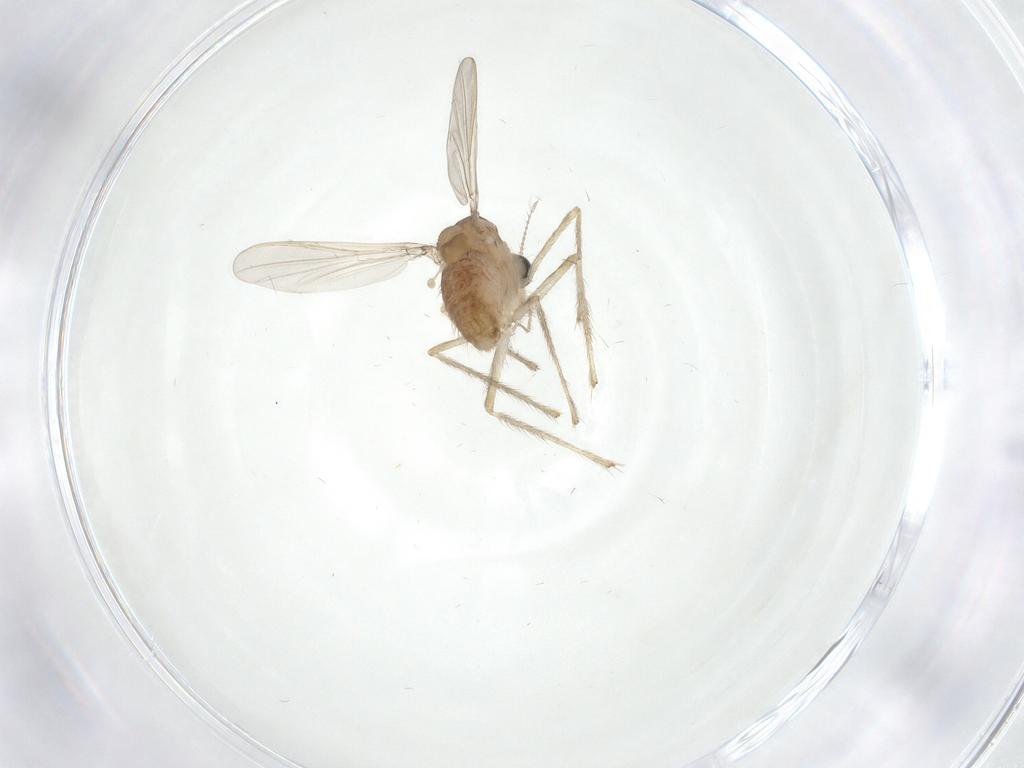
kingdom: Animalia
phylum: Arthropoda
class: Insecta
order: Diptera
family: Chironomidae
